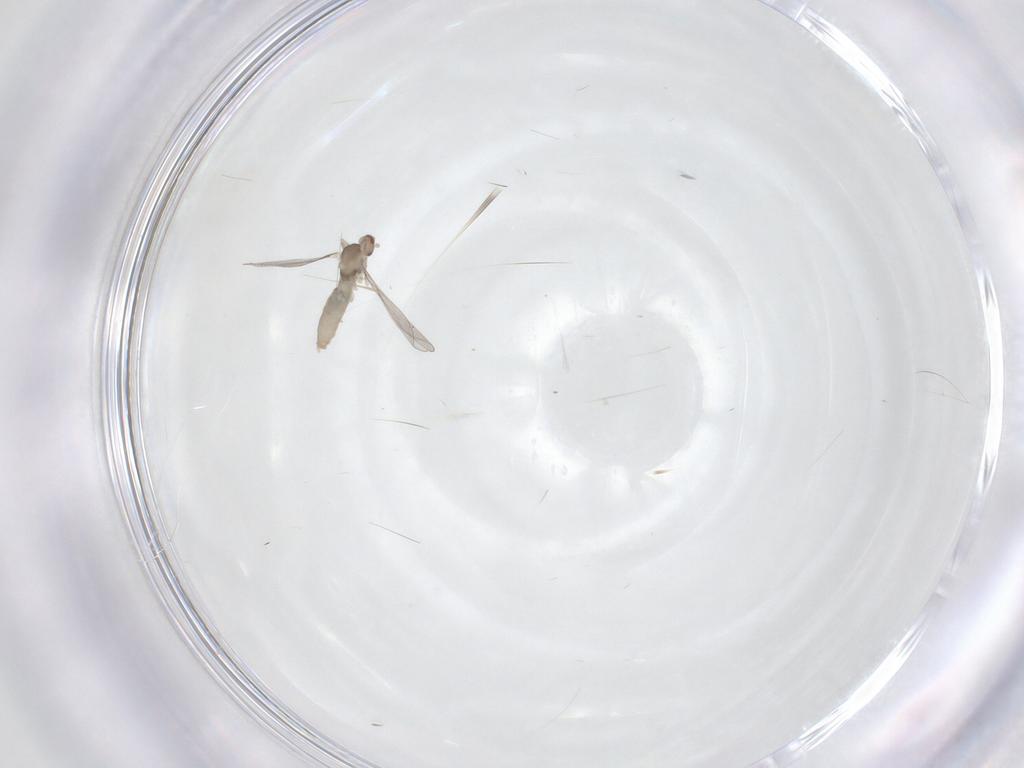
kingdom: Animalia
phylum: Arthropoda
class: Insecta
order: Diptera
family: Cecidomyiidae
